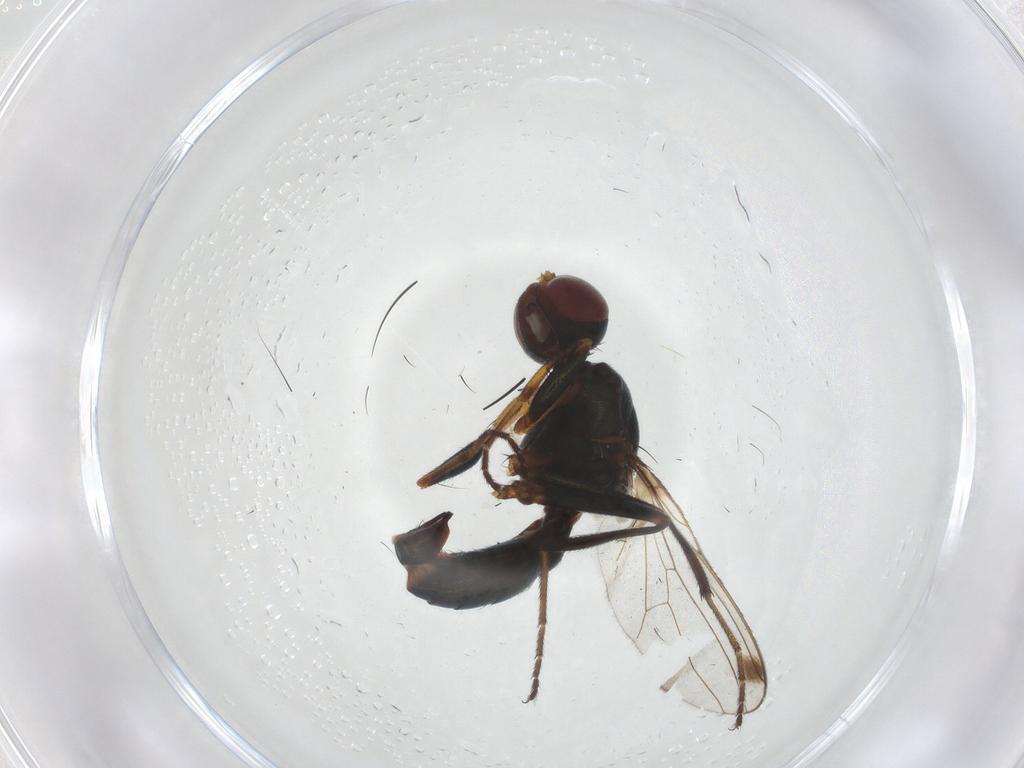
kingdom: Animalia
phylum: Arthropoda
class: Insecta
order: Diptera
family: Sepsidae
